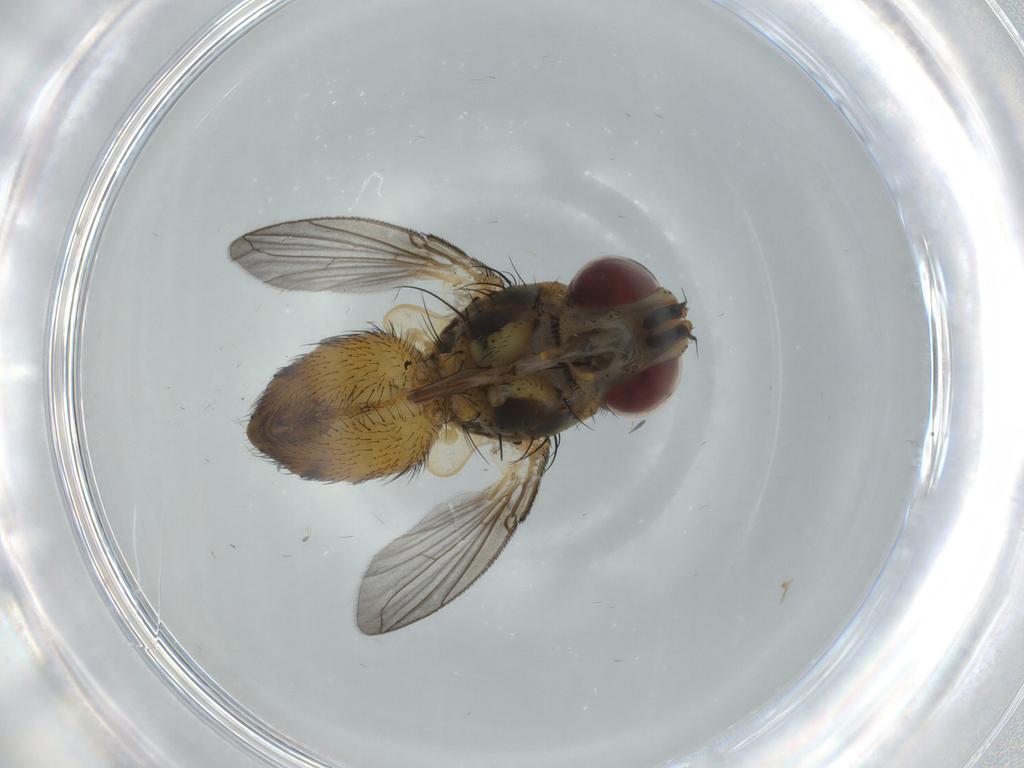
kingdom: Animalia
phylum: Arthropoda
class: Insecta
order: Diptera
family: Tachinidae
